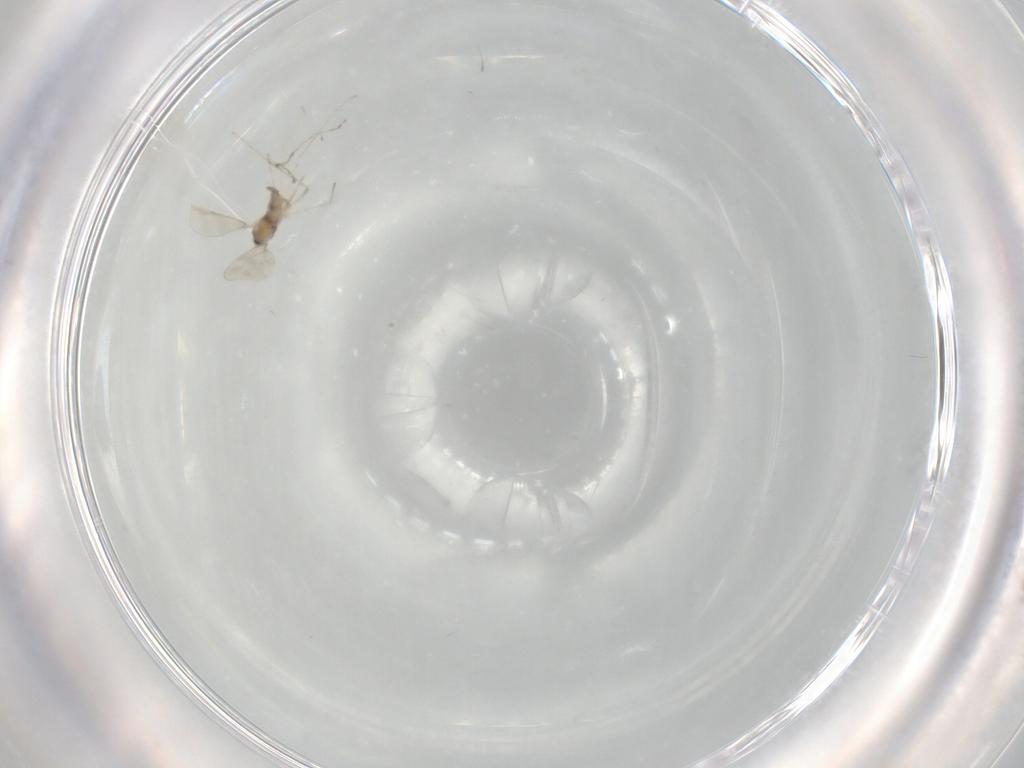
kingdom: Animalia
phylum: Arthropoda
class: Insecta
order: Diptera
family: Cecidomyiidae
